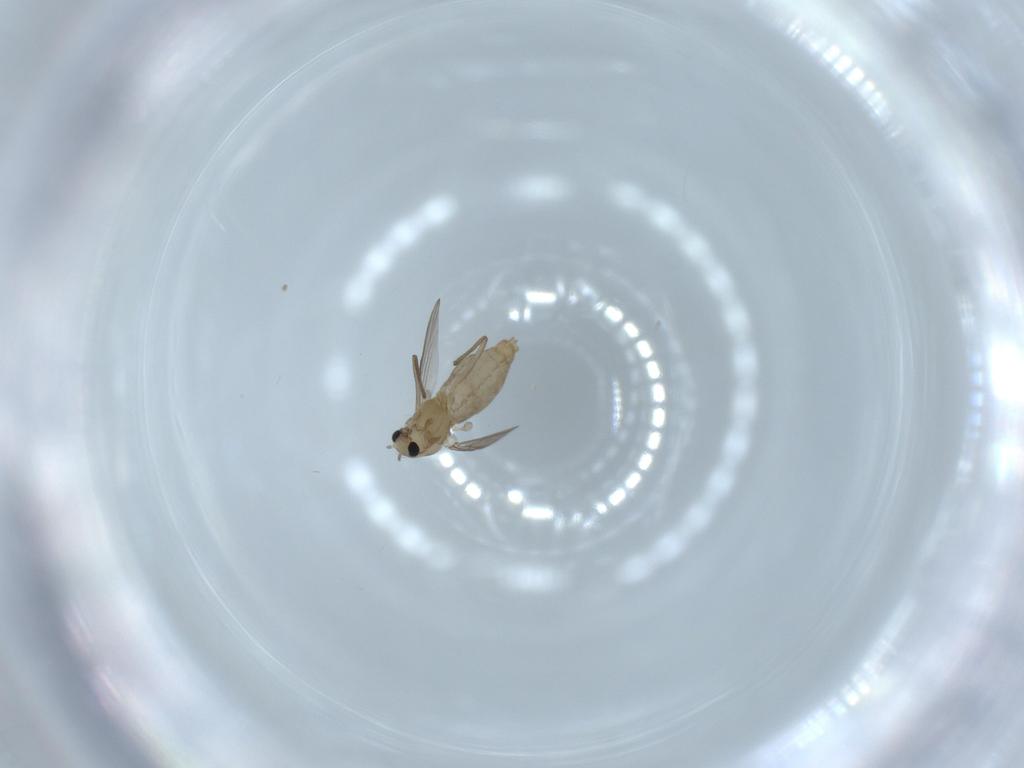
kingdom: Animalia
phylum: Arthropoda
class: Insecta
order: Diptera
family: Chironomidae
